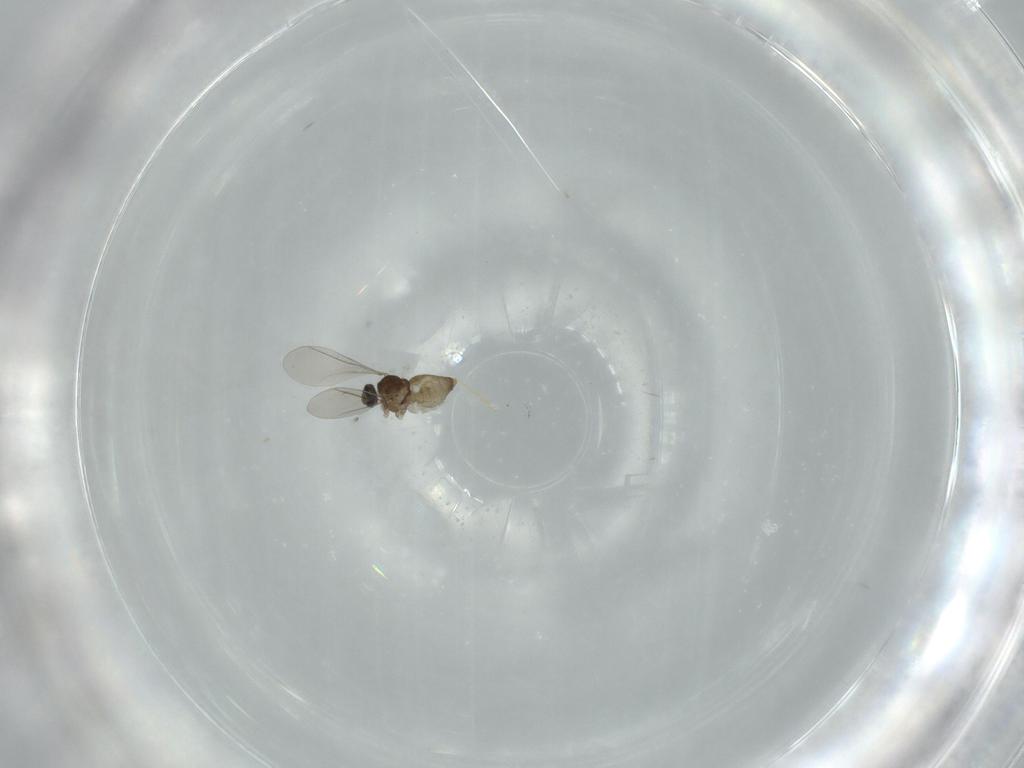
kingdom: Animalia
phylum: Arthropoda
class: Insecta
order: Diptera
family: Cecidomyiidae
